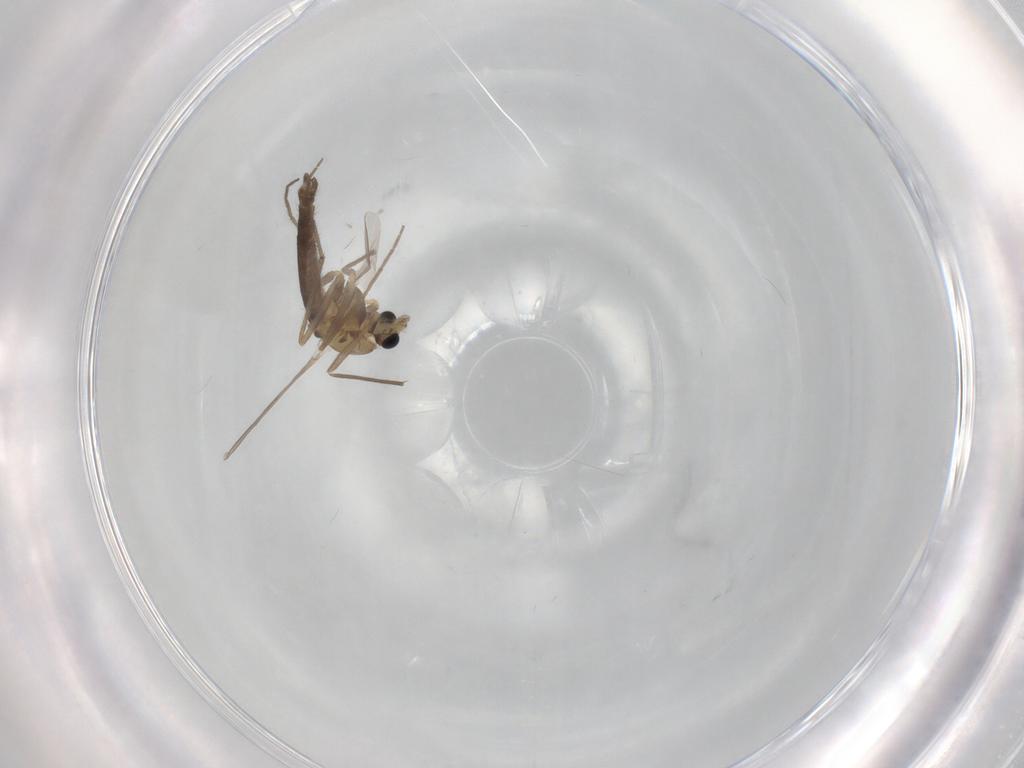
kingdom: Animalia
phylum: Arthropoda
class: Insecta
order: Diptera
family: Chironomidae
